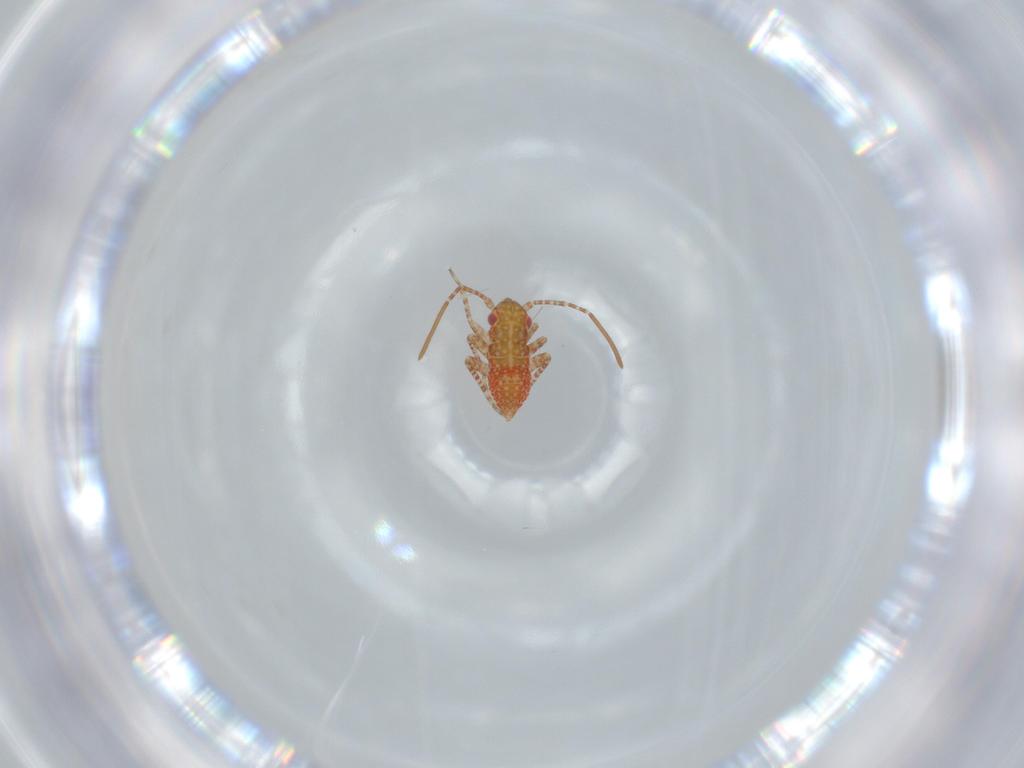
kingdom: Animalia
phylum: Arthropoda
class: Insecta
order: Hemiptera
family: Miridae
